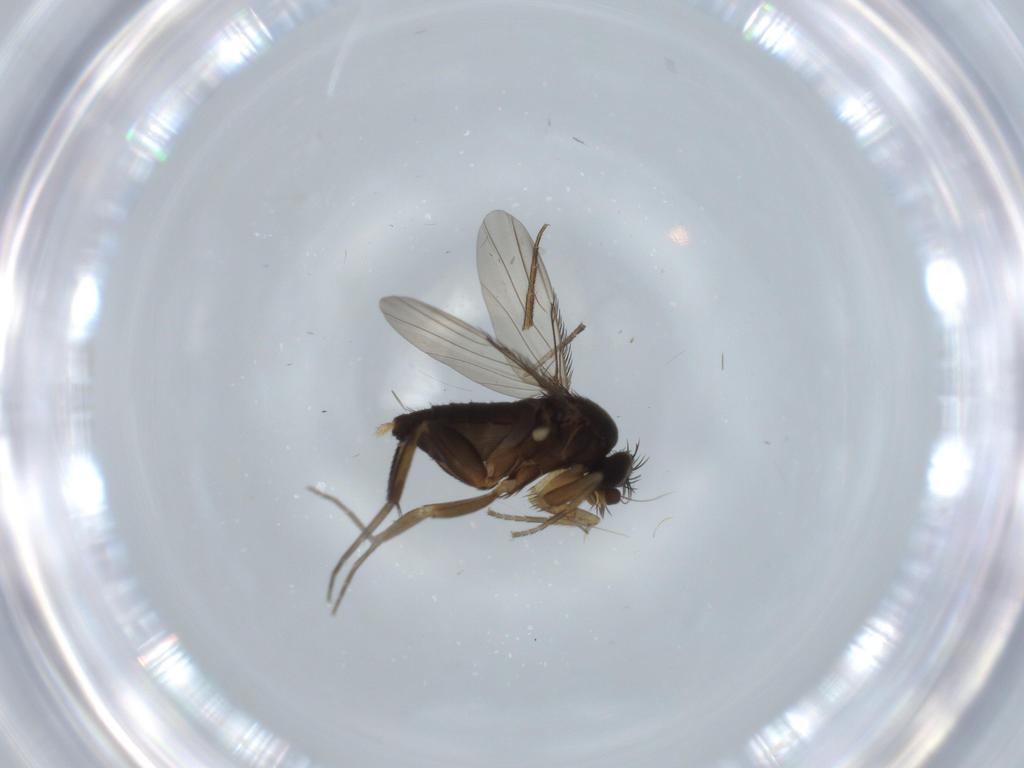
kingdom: Animalia
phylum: Arthropoda
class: Insecta
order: Diptera
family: Phoridae
